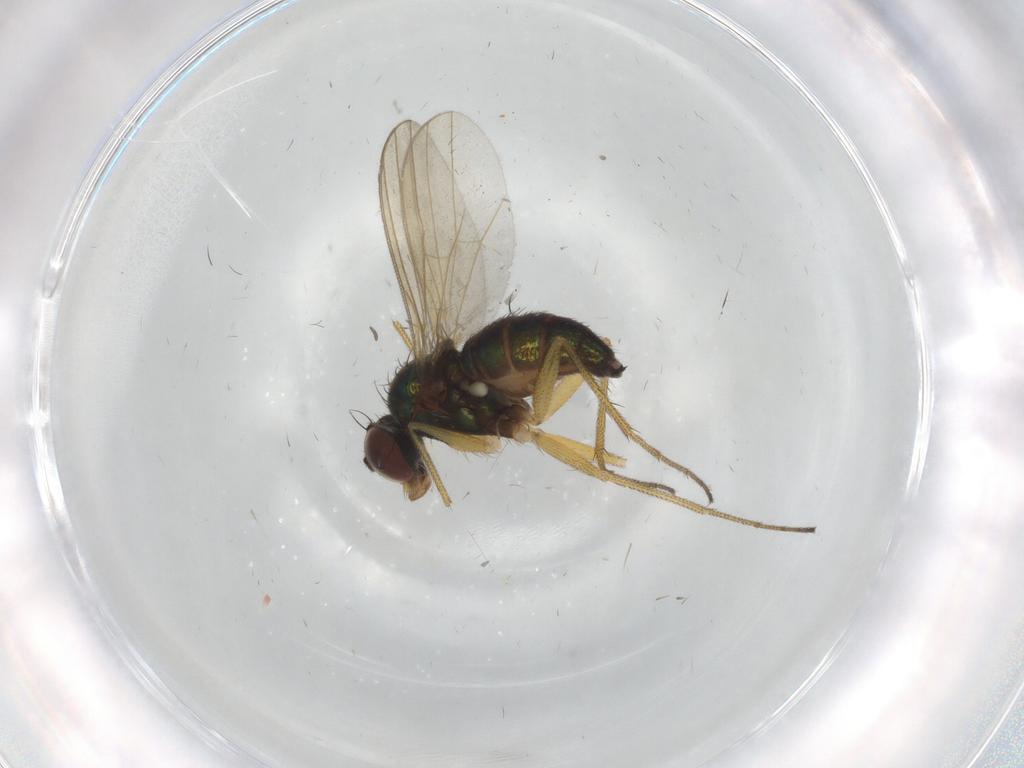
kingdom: Animalia
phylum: Arthropoda
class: Insecta
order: Diptera
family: Dolichopodidae
